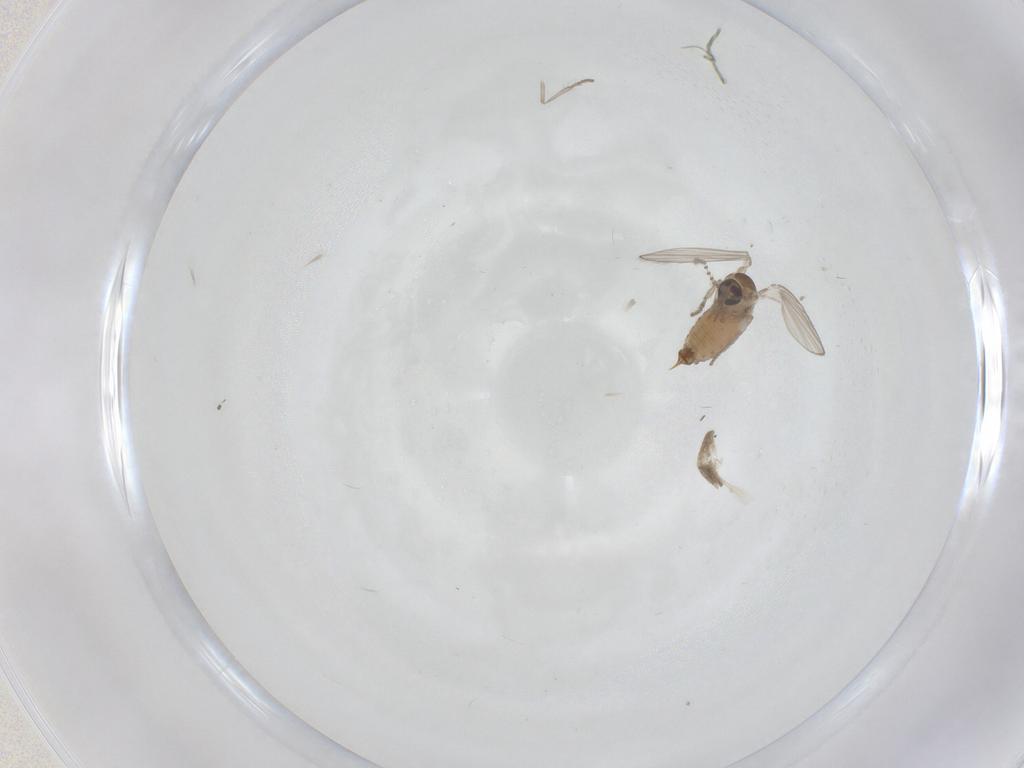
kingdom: Animalia
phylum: Arthropoda
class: Insecta
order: Diptera
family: Psychodidae
